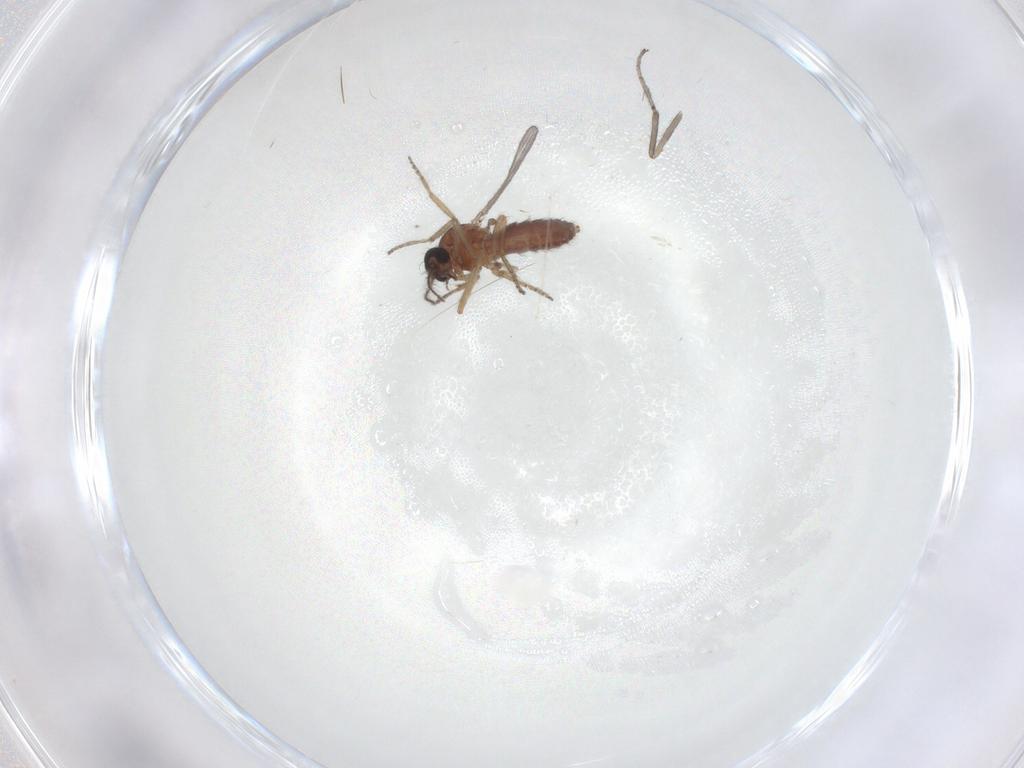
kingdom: Animalia
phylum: Arthropoda
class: Insecta
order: Diptera
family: Cecidomyiidae
